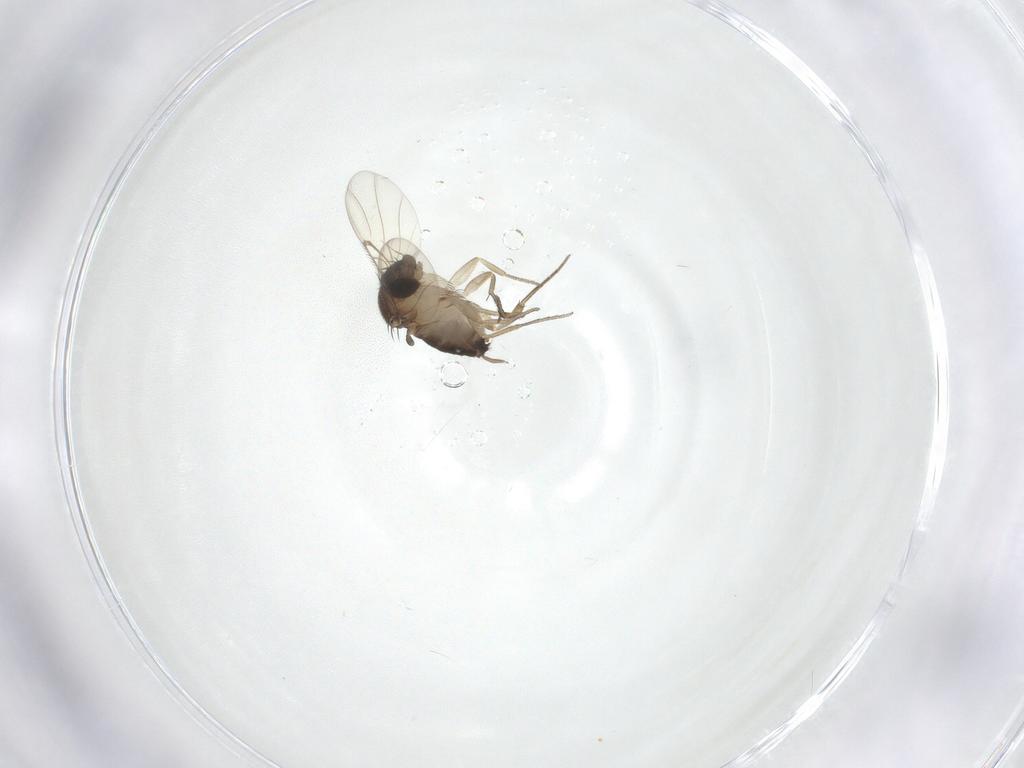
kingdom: Animalia
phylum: Arthropoda
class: Insecta
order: Diptera
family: Phoridae
